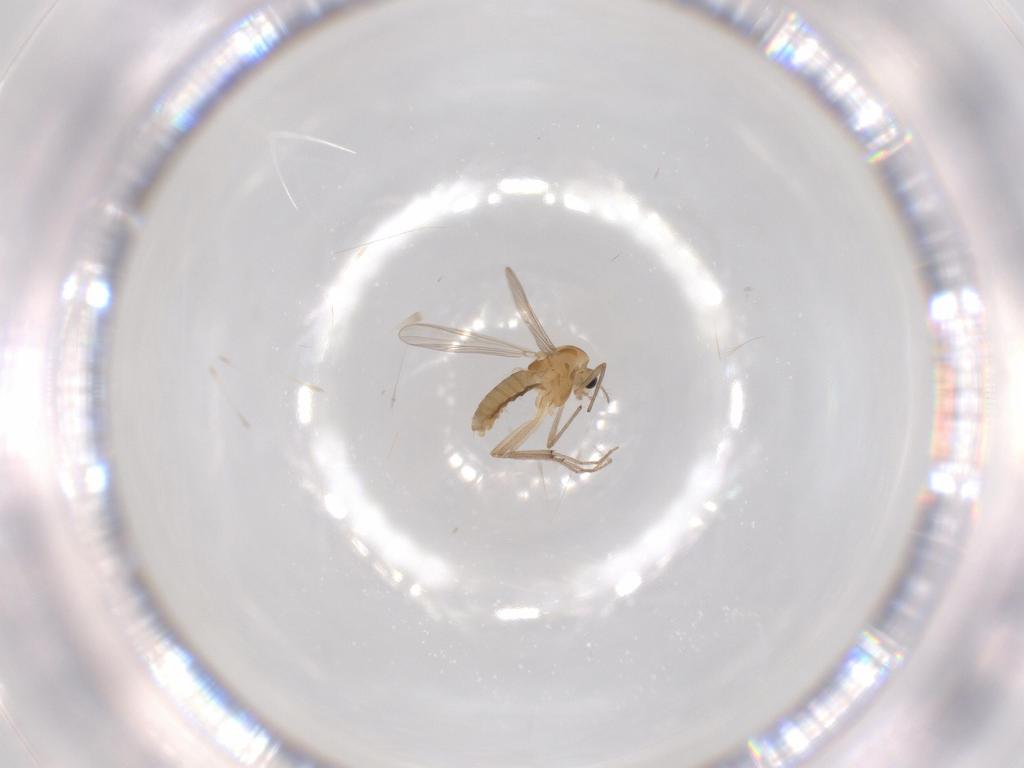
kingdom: Animalia
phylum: Arthropoda
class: Insecta
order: Diptera
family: Chironomidae
